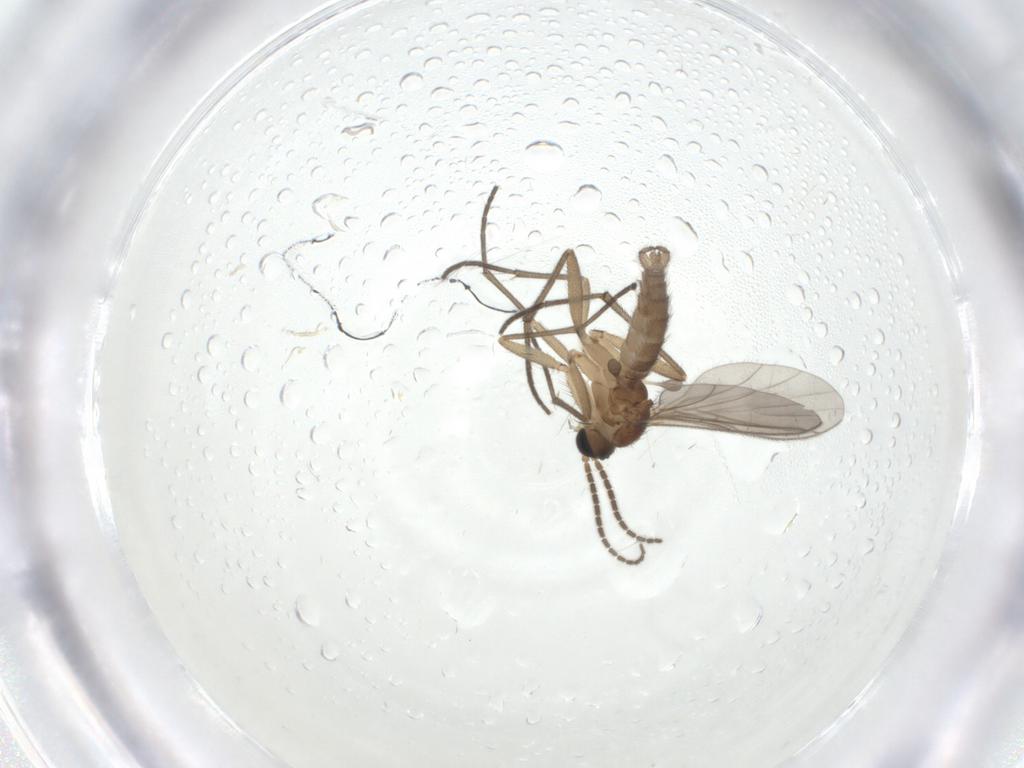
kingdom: Animalia
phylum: Arthropoda
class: Insecta
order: Diptera
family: Sciaridae
